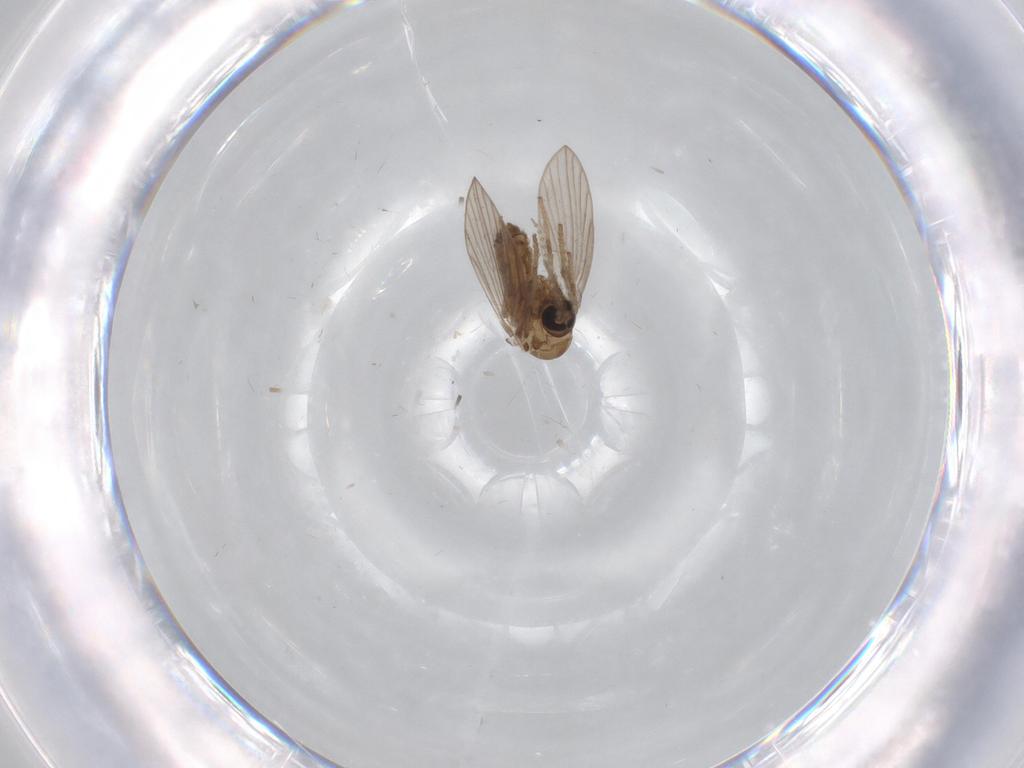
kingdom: Animalia
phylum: Arthropoda
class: Insecta
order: Diptera
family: Psychodidae
